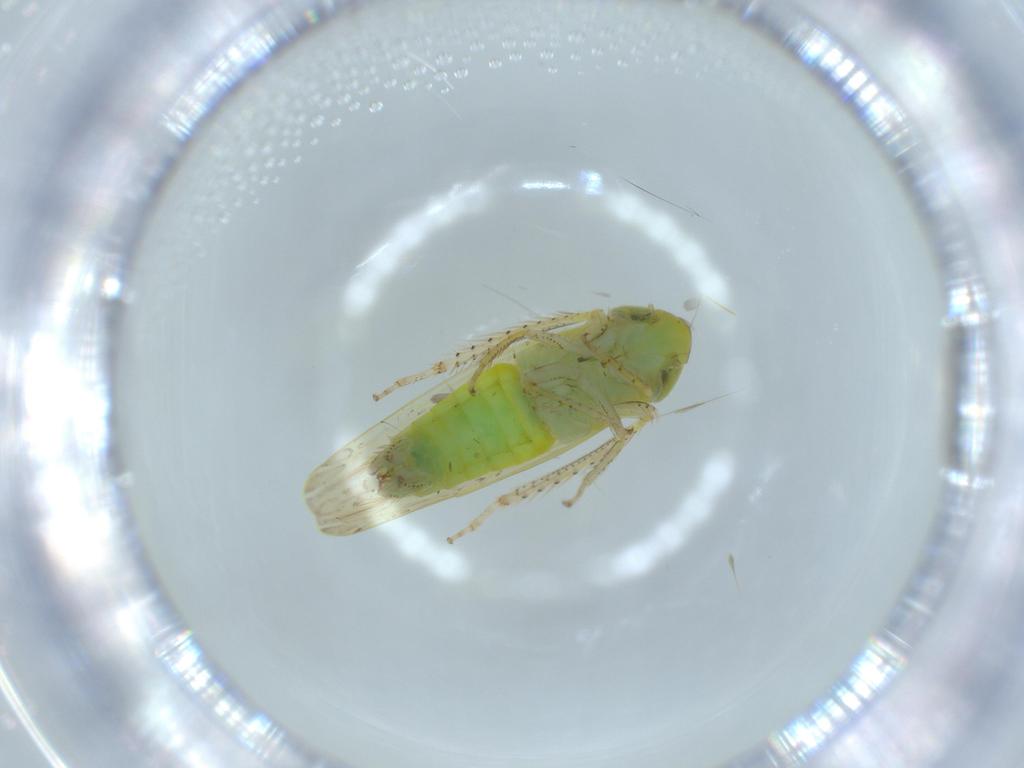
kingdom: Animalia
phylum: Arthropoda
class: Insecta
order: Hemiptera
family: Cicadellidae
